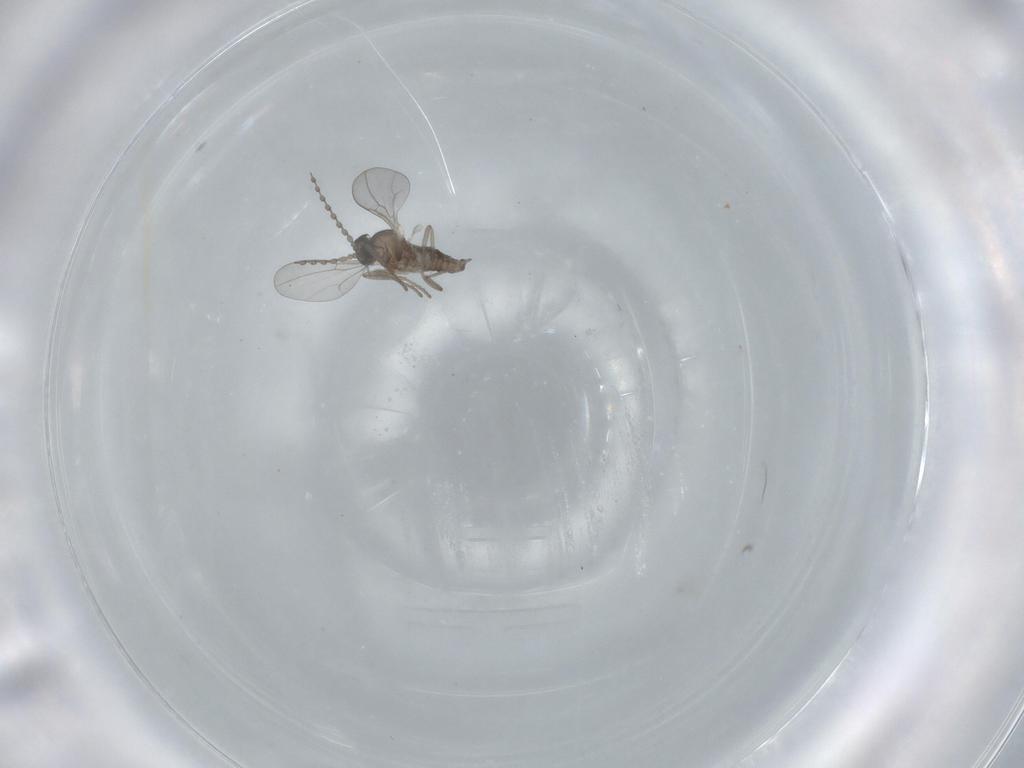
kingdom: Animalia
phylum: Arthropoda
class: Insecta
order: Diptera
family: Cecidomyiidae
